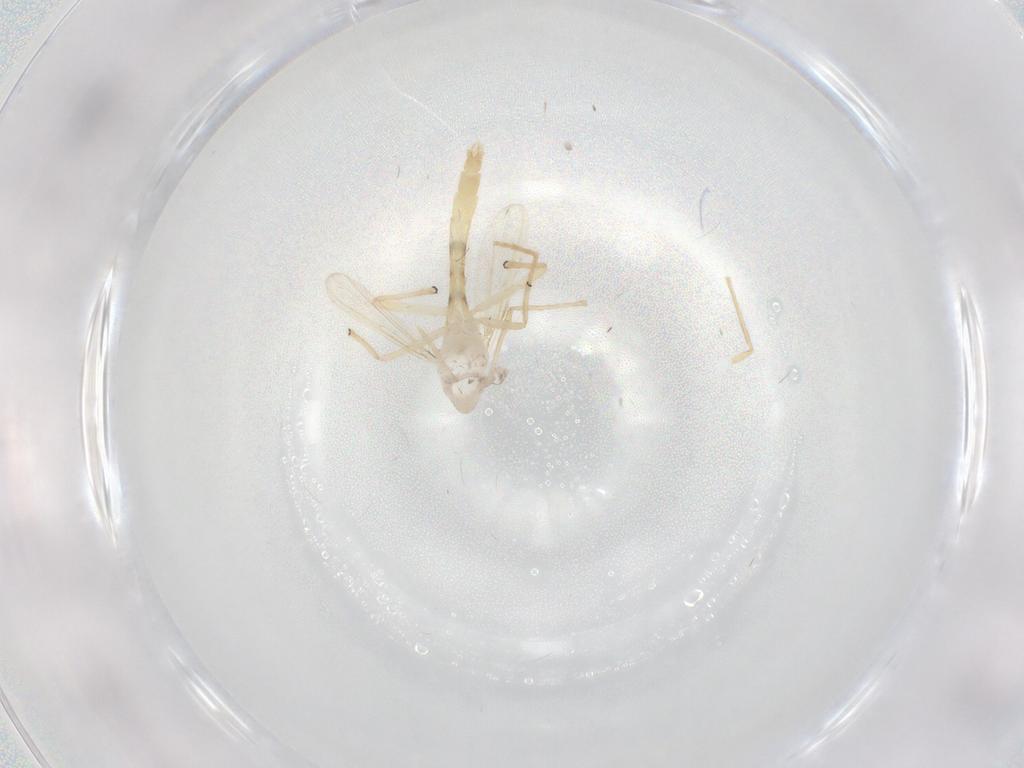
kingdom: Animalia
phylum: Arthropoda
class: Insecta
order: Diptera
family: Chironomidae
